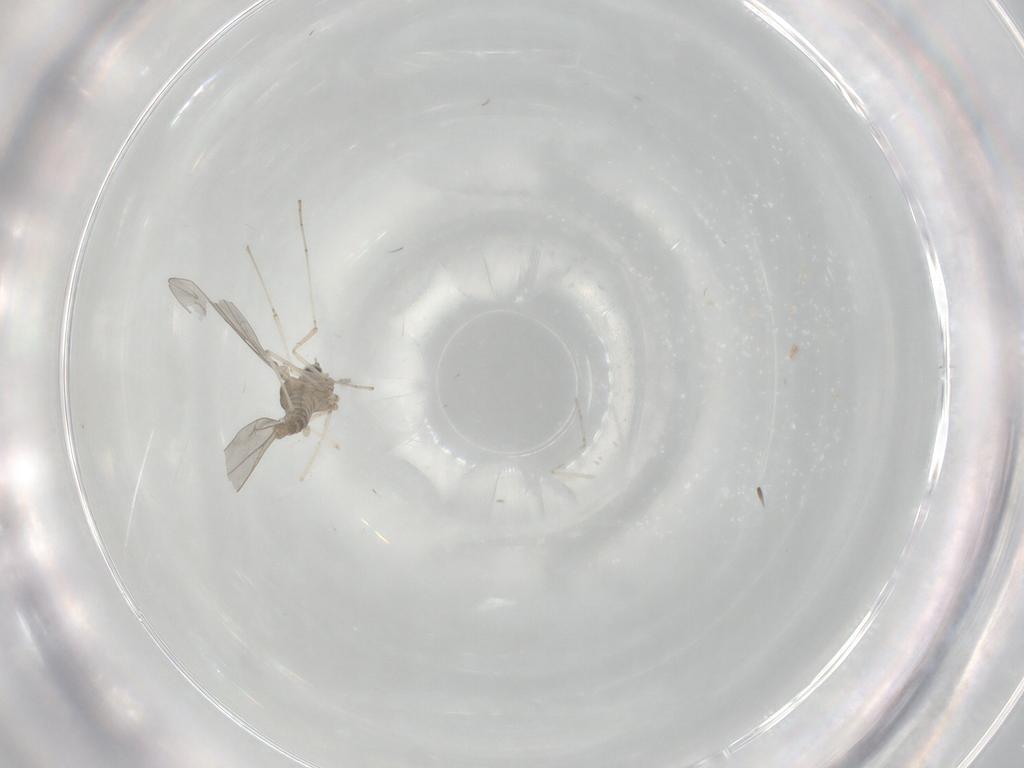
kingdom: Animalia
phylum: Arthropoda
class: Insecta
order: Diptera
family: Cecidomyiidae
